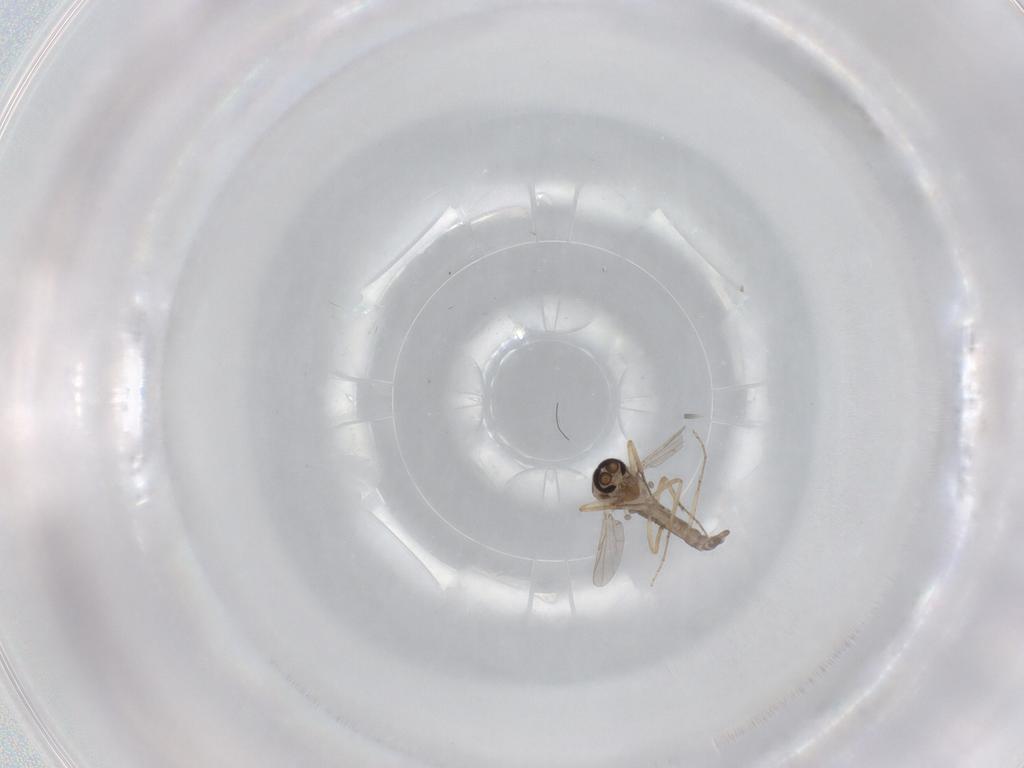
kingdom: Animalia
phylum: Arthropoda
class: Insecta
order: Diptera
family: Ceratopogonidae
